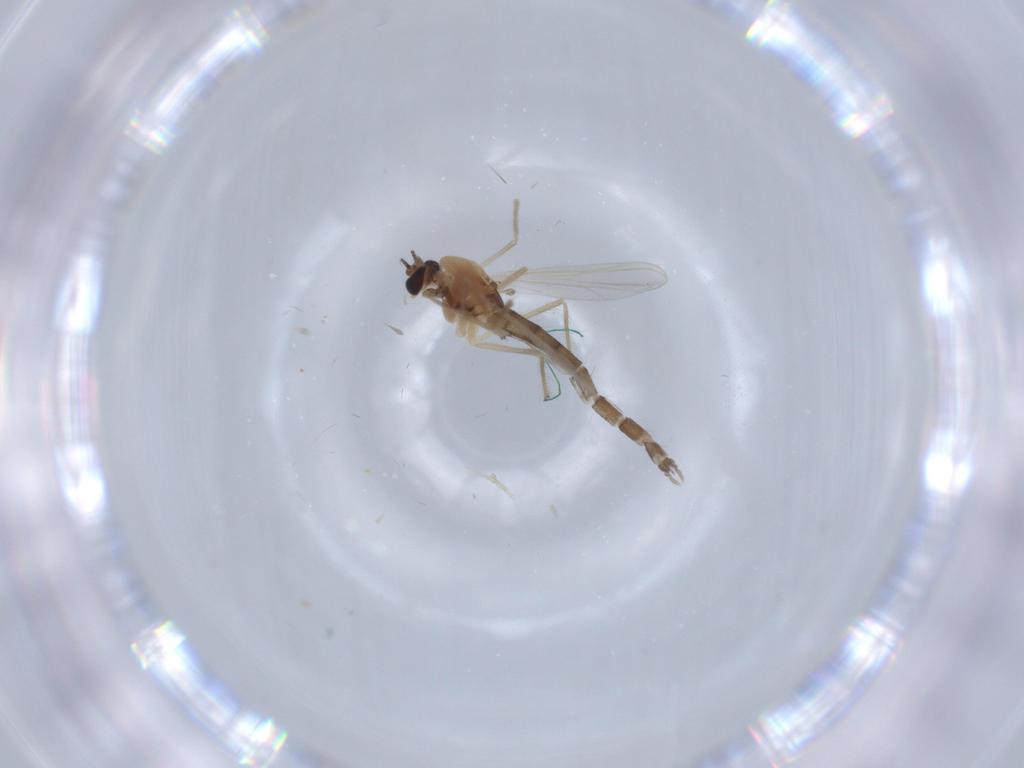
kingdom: Animalia
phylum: Arthropoda
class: Insecta
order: Diptera
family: Chironomidae
